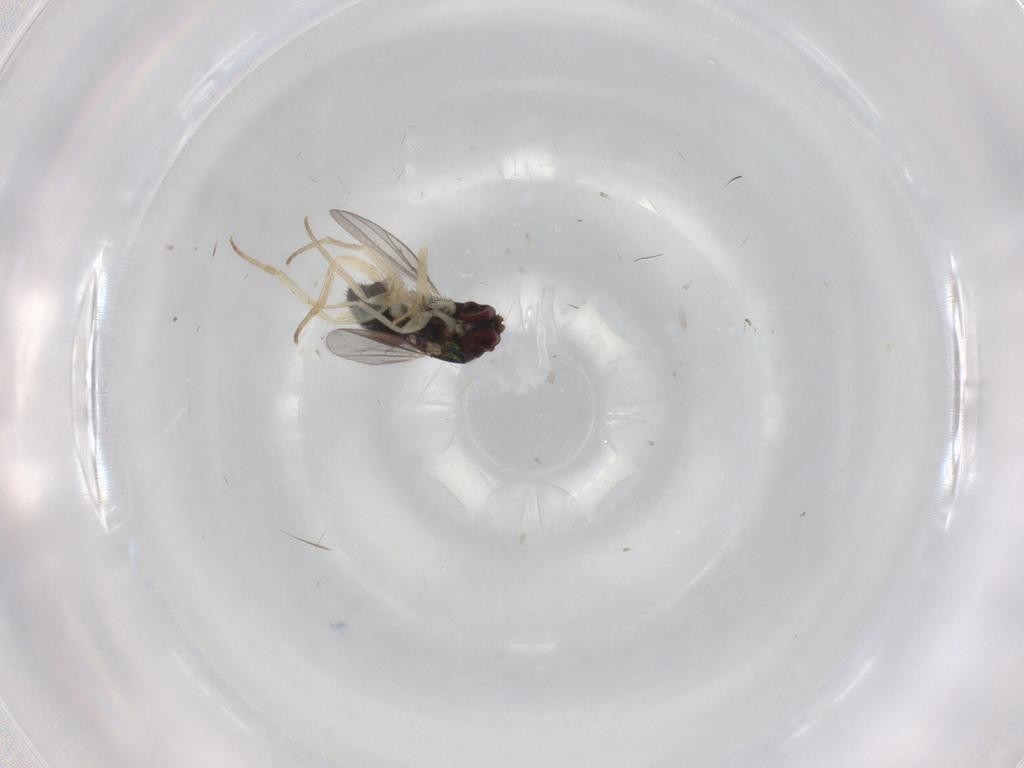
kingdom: Animalia
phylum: Arthropoda
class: Insecta
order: Diptera
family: Dolichopodidae
